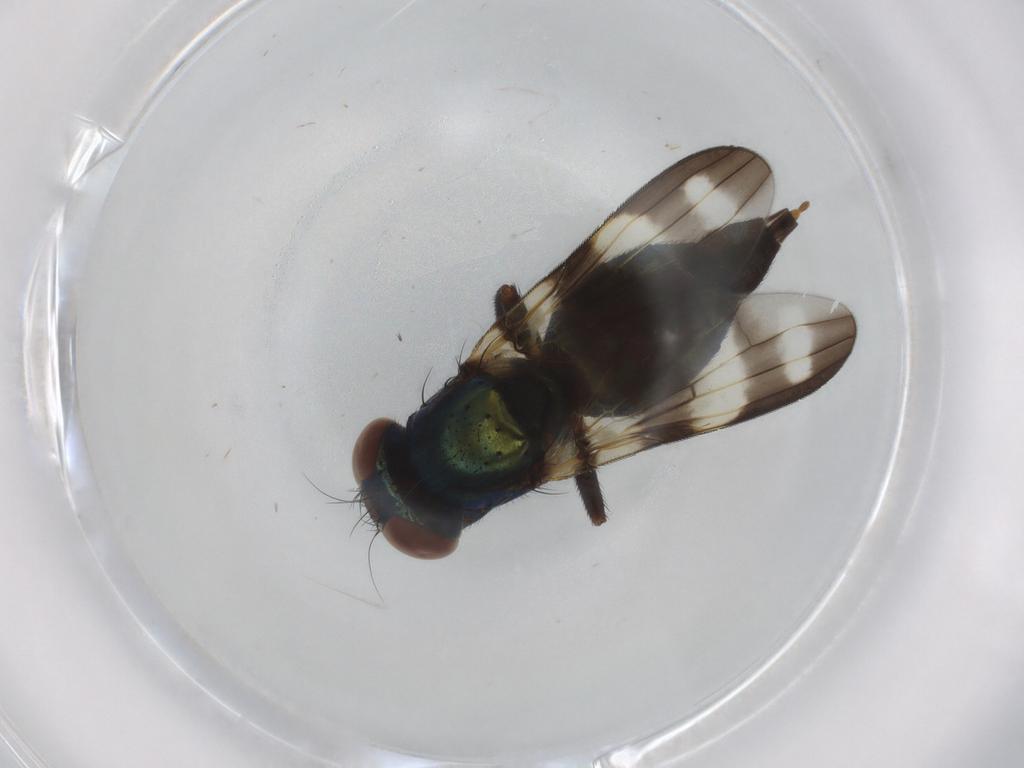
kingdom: Animalia
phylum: Arthropoda
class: Insecta
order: Diptera
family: Ulidiidae
